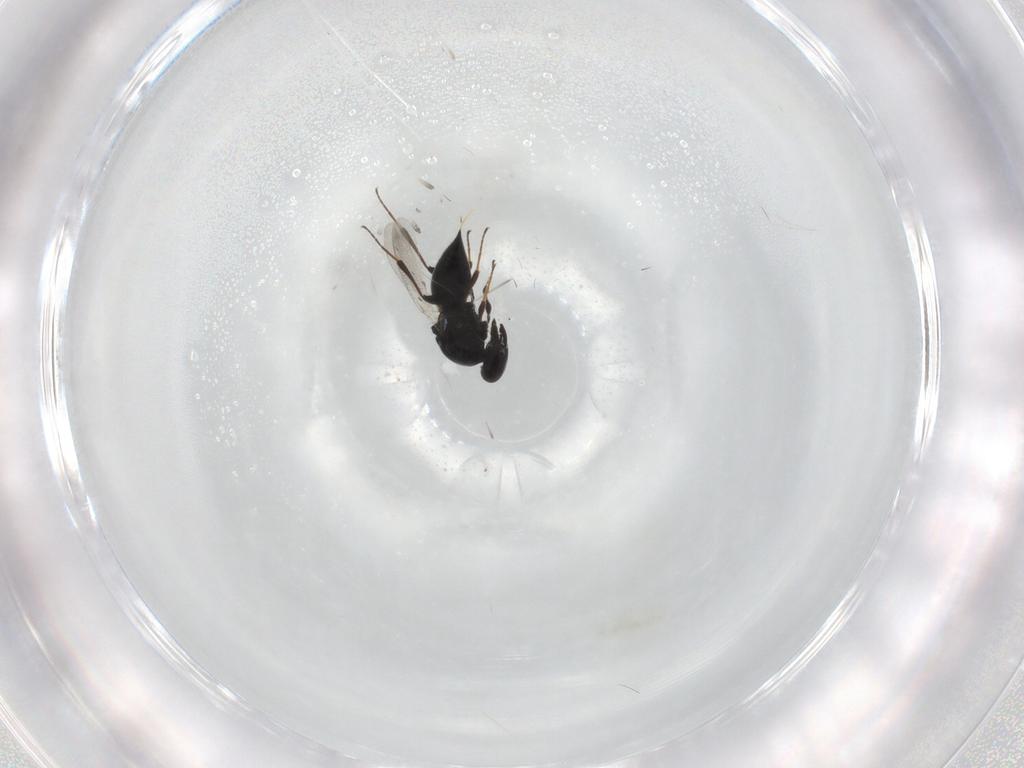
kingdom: Animalia
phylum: Arthropoda
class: Insecta
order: Hymenoptera
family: Platygastridae
